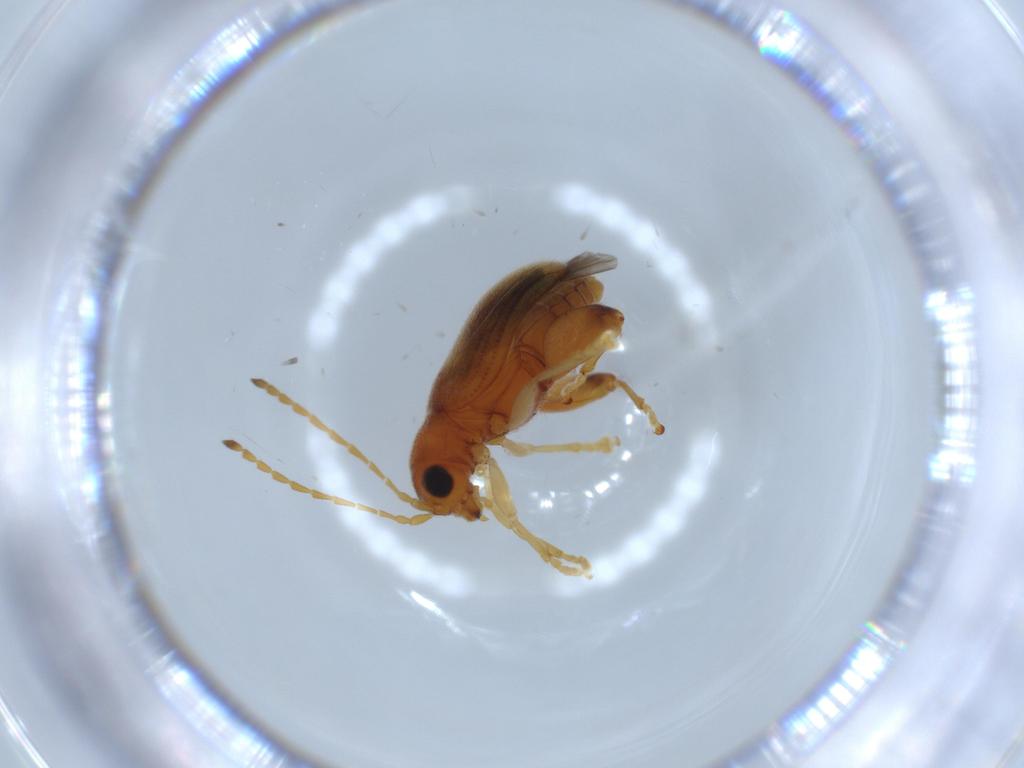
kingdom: Animalia
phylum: Arthropoda
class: Insecta
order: Coleoptera
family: Chrysomelidae
